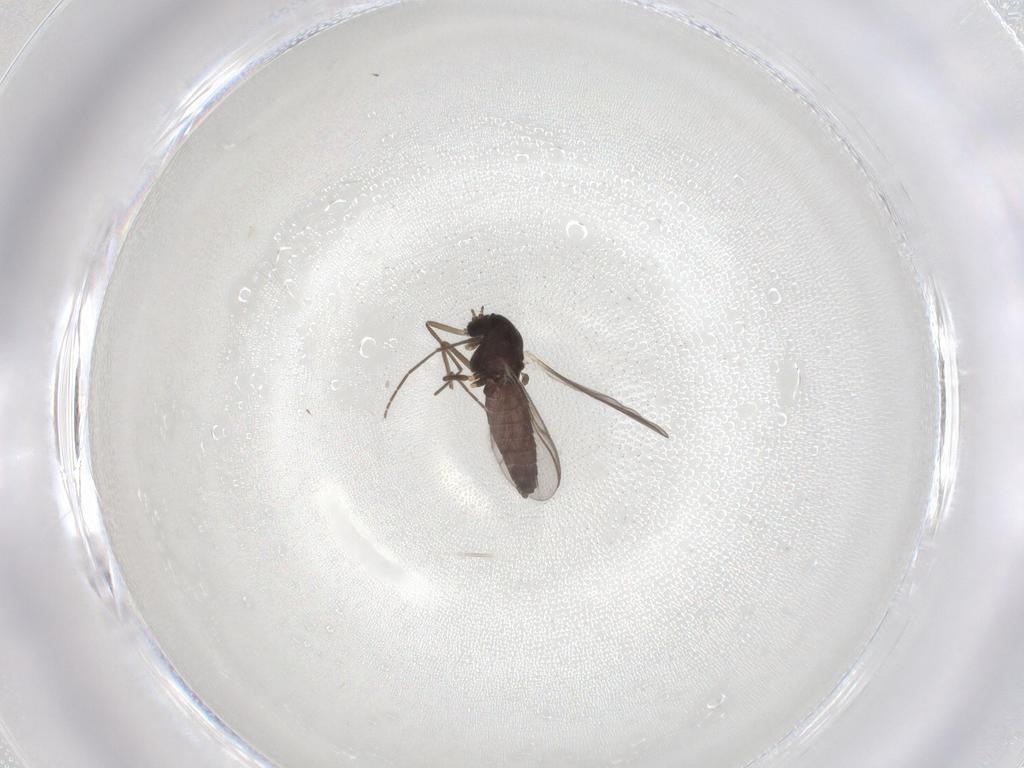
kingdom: Animalia
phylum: Arthropoda
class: Insecta
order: Diptera
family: Chironomidae
